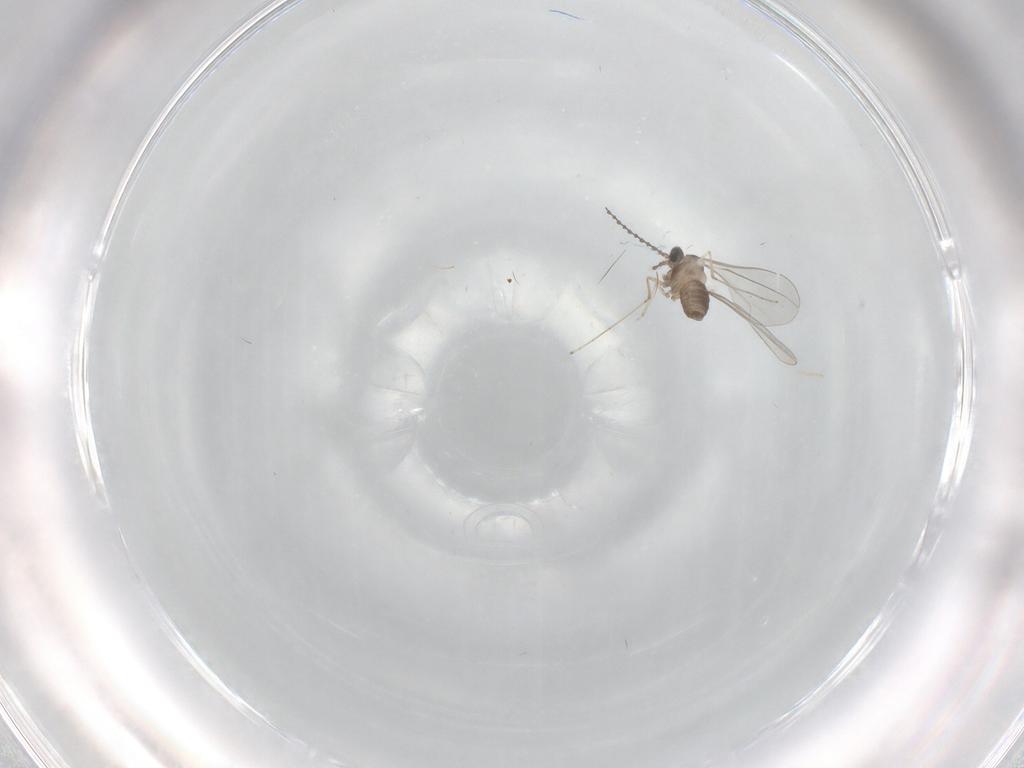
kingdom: Animalia
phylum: Arthropoda
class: Insecta
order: Diptera
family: Cecidomyiidae
